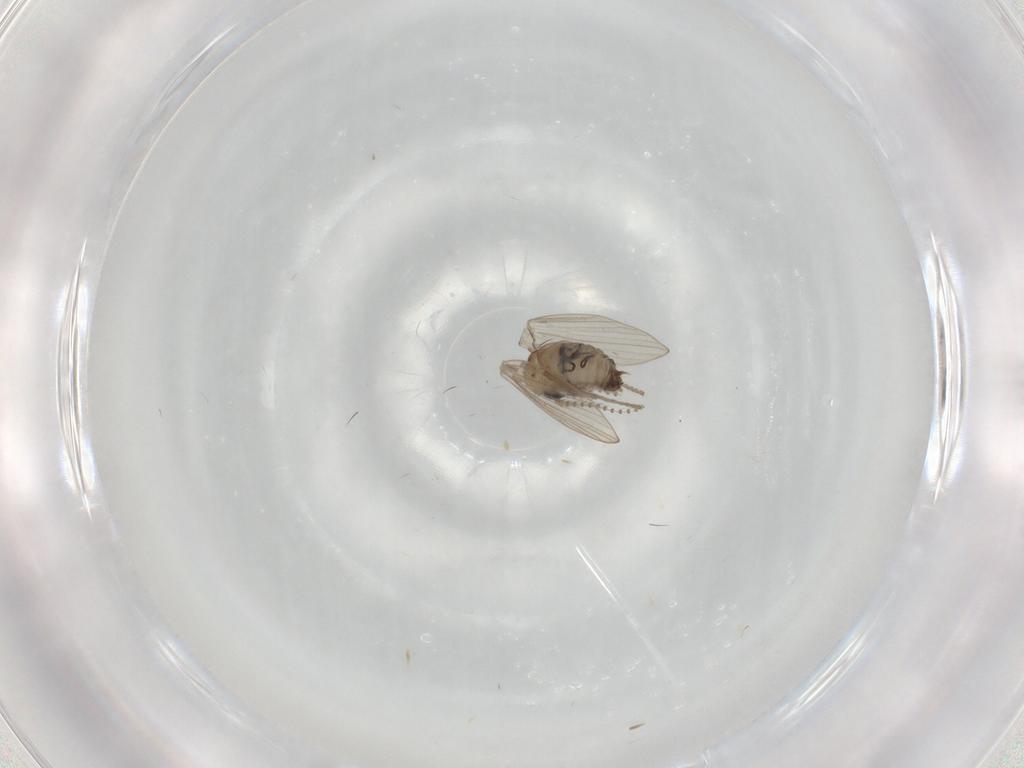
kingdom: Animalia
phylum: Arthropoda
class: Insecta
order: Diptera
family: Psychodidae
